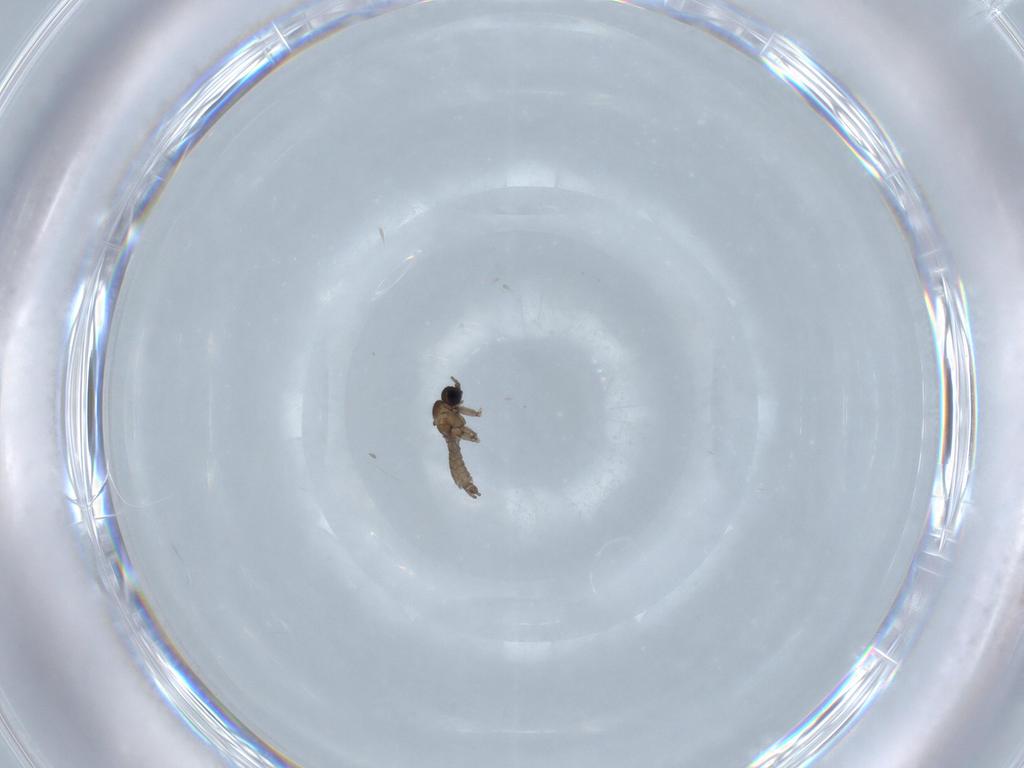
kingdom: Animalia
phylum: Arthropoda
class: Insecta
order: Diptera
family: Sciaridae
